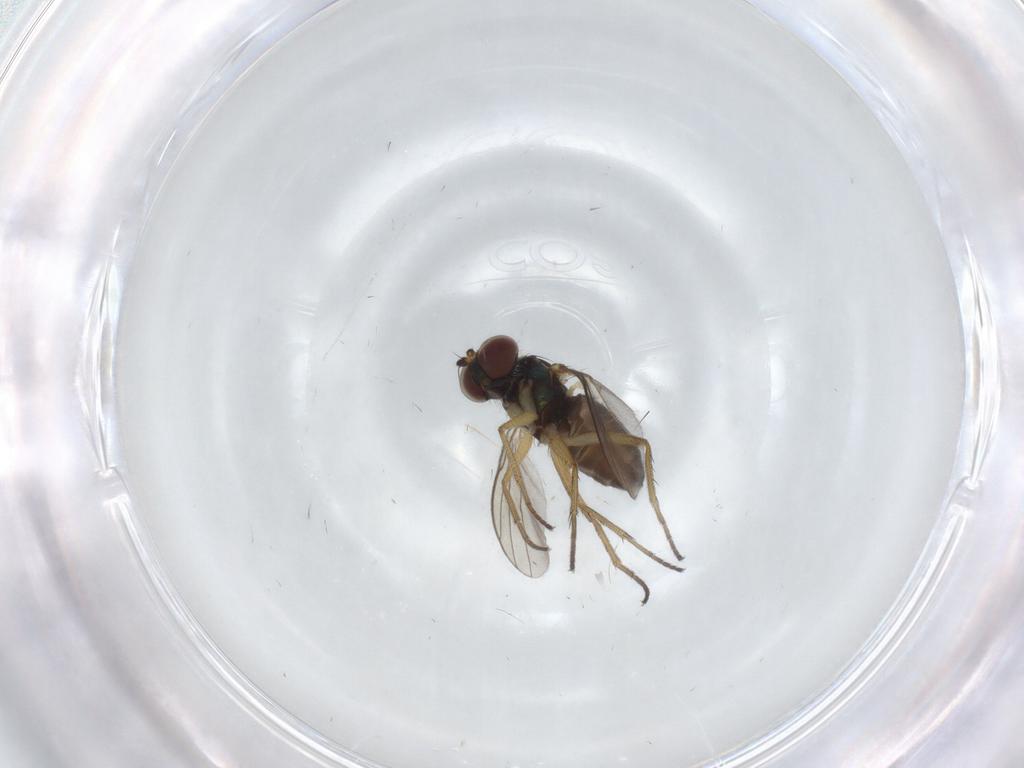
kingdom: Animalia
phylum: Arthropoda
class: Insecta
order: Diptera
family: Dolichopodidae
